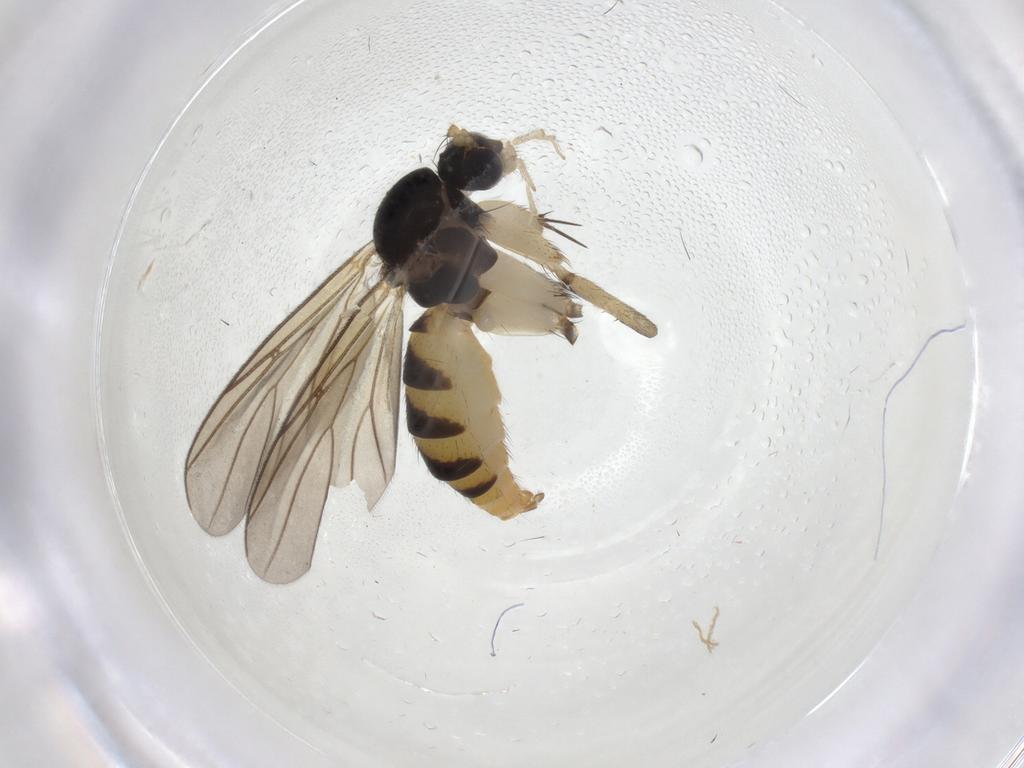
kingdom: Animalia
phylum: Arthropoda
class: Insecta
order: Diptera
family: Mycetophilidae
